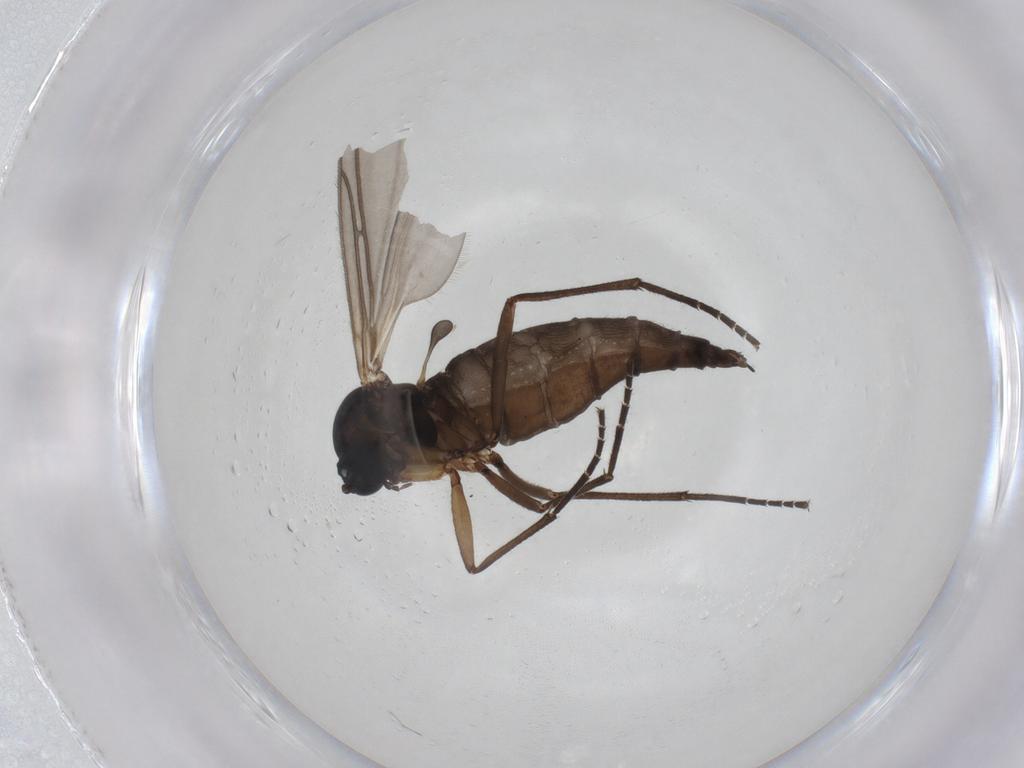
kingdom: Animalia
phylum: Arthropoda
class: Insecta
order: Diptera
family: Sciaridae
